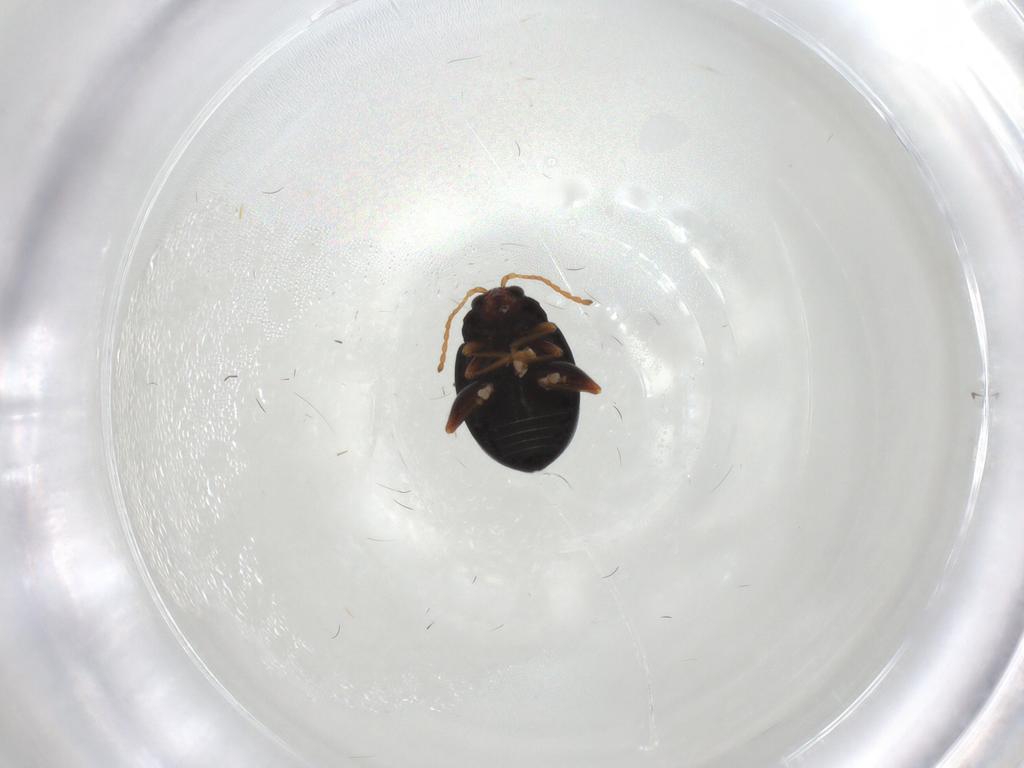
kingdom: Animalia
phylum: Arthropoda
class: Insecta
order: Coleoptera
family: Chrysomelidae
